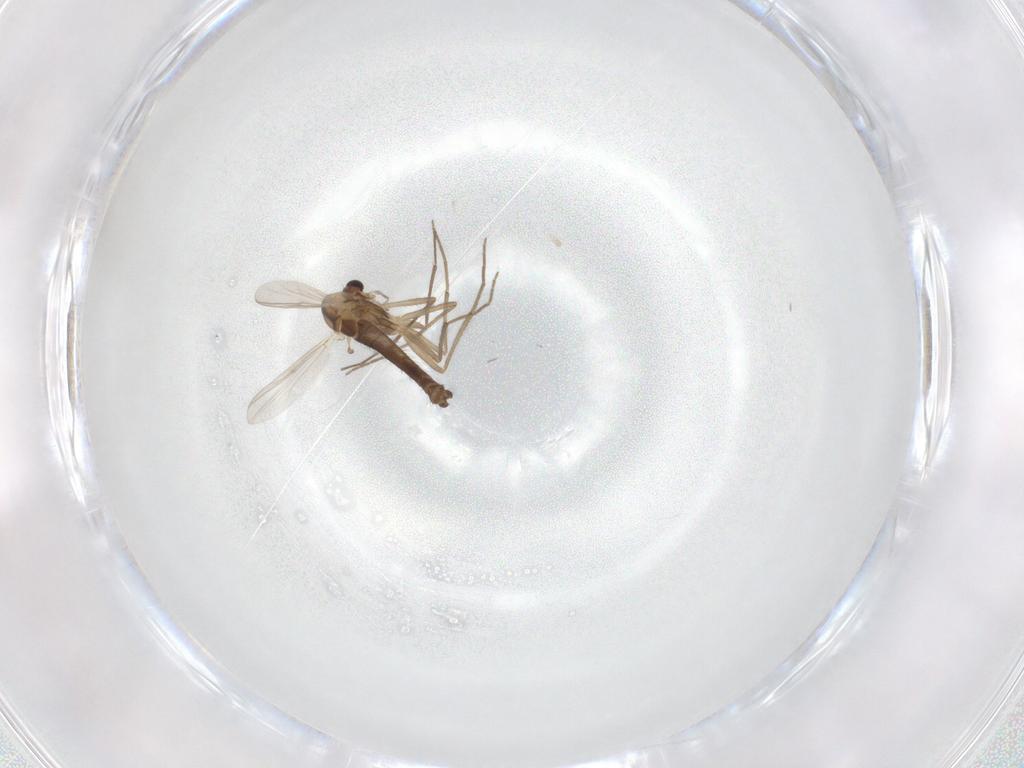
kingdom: Animalia
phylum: Arthropoda
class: Insecta
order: Diptera
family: Chironomidae
